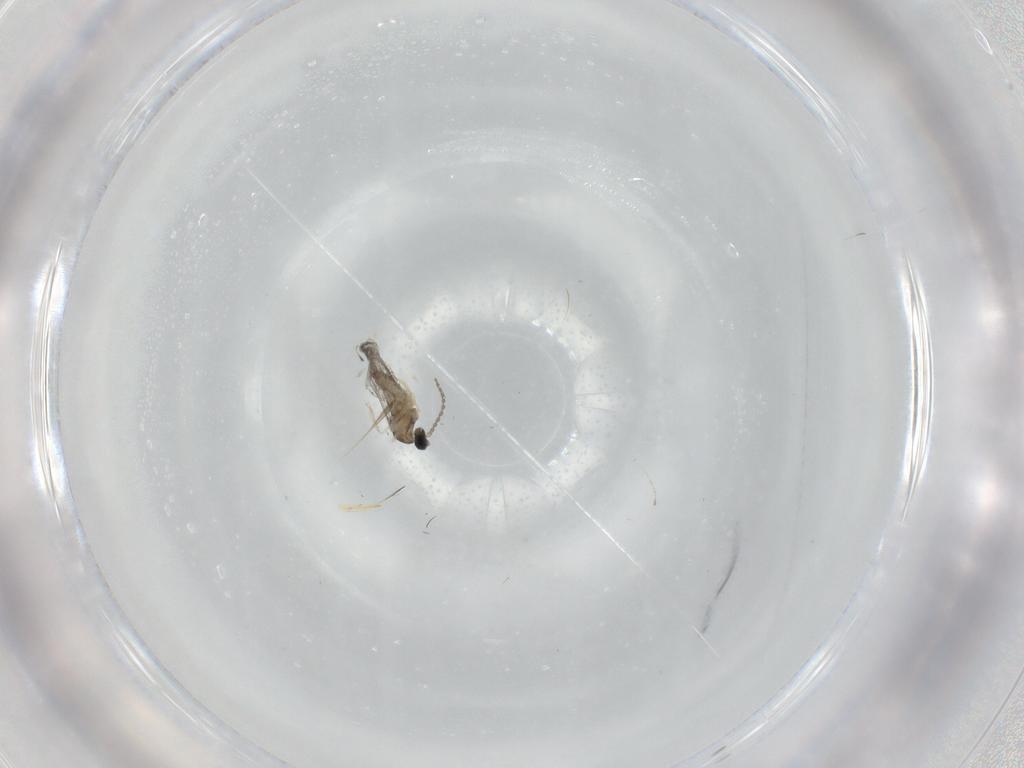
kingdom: Animalia
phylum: Arthropoda
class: Insecta
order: Diptera
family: Cecidomyiidae
